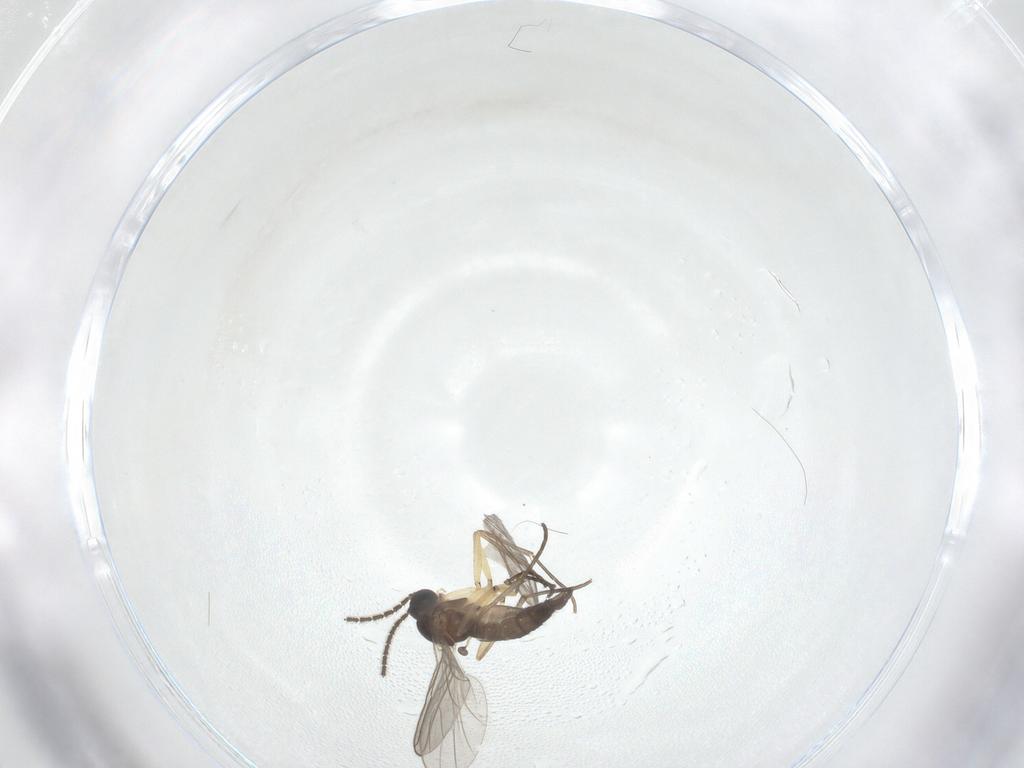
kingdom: Animalia
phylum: Arthropoda
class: Insecta
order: Diptera
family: Sciaridae
